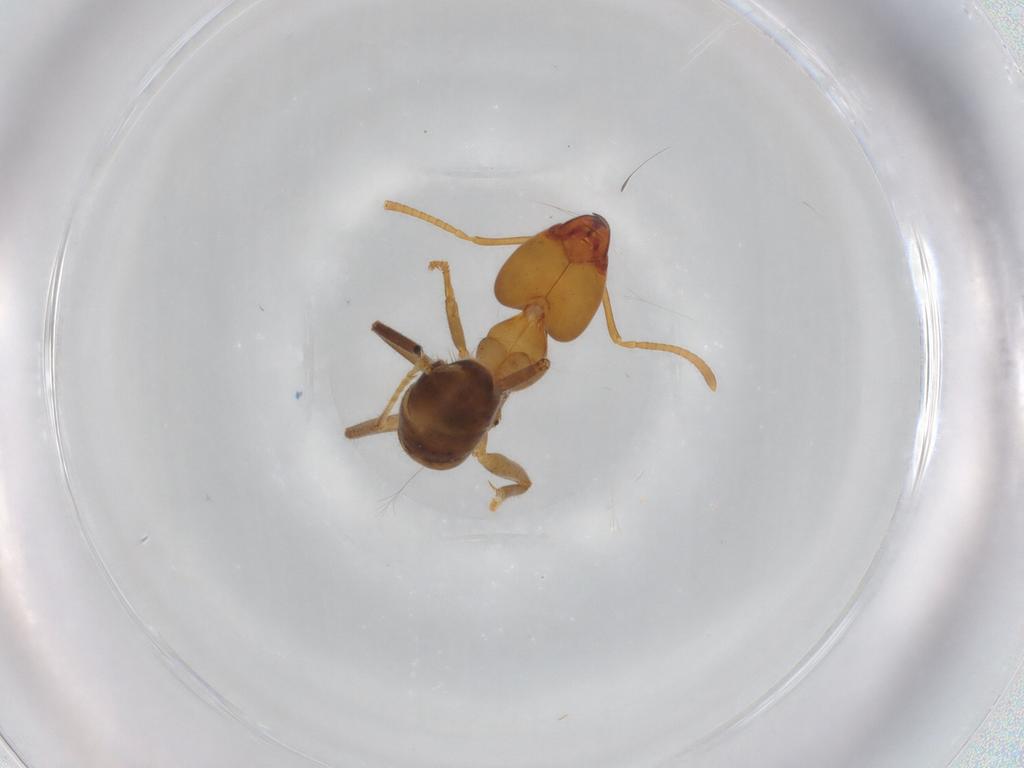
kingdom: Animalia
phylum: Arthropoda
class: Insecta
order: Hymenoptera
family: Formicidae
